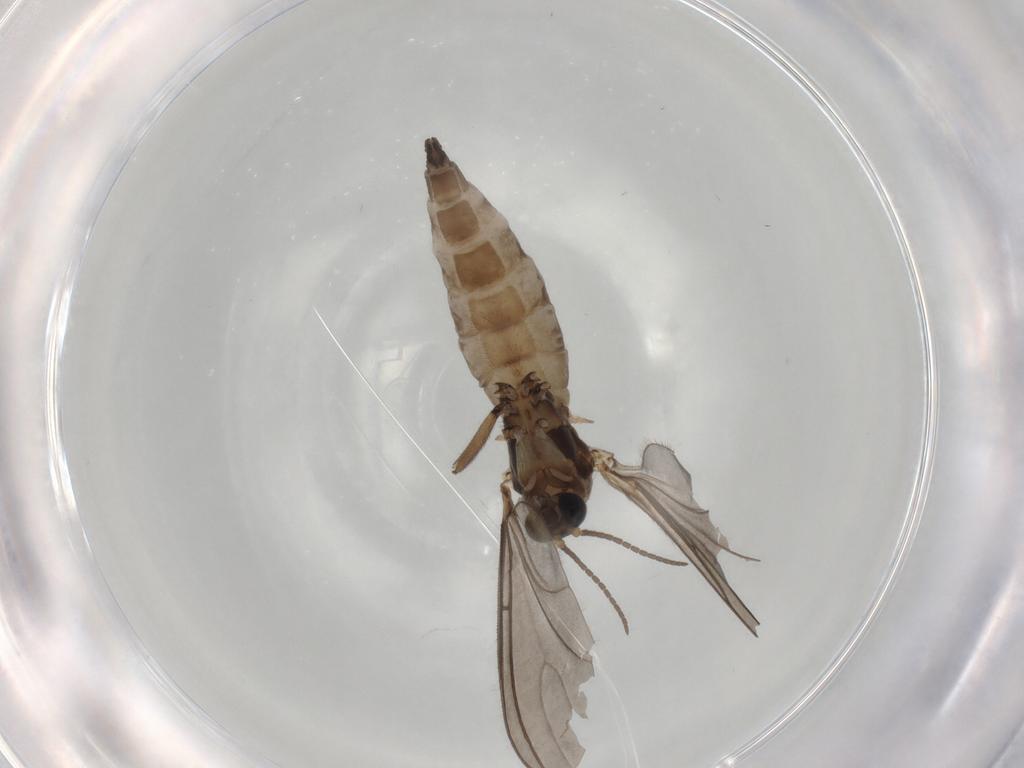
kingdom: Animalia
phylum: Arthropoda
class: Insecta
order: Diptera
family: Sciaridae
